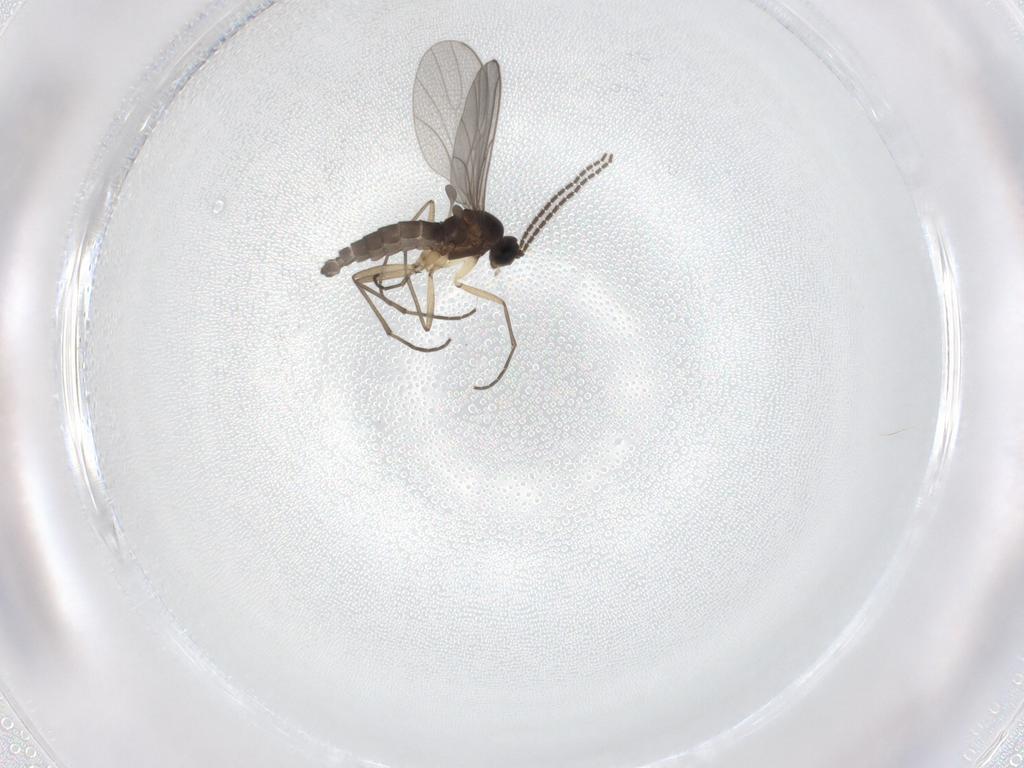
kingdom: Animalia
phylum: Arthropoda
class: Insecta
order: Diptera
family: Sciaridae
